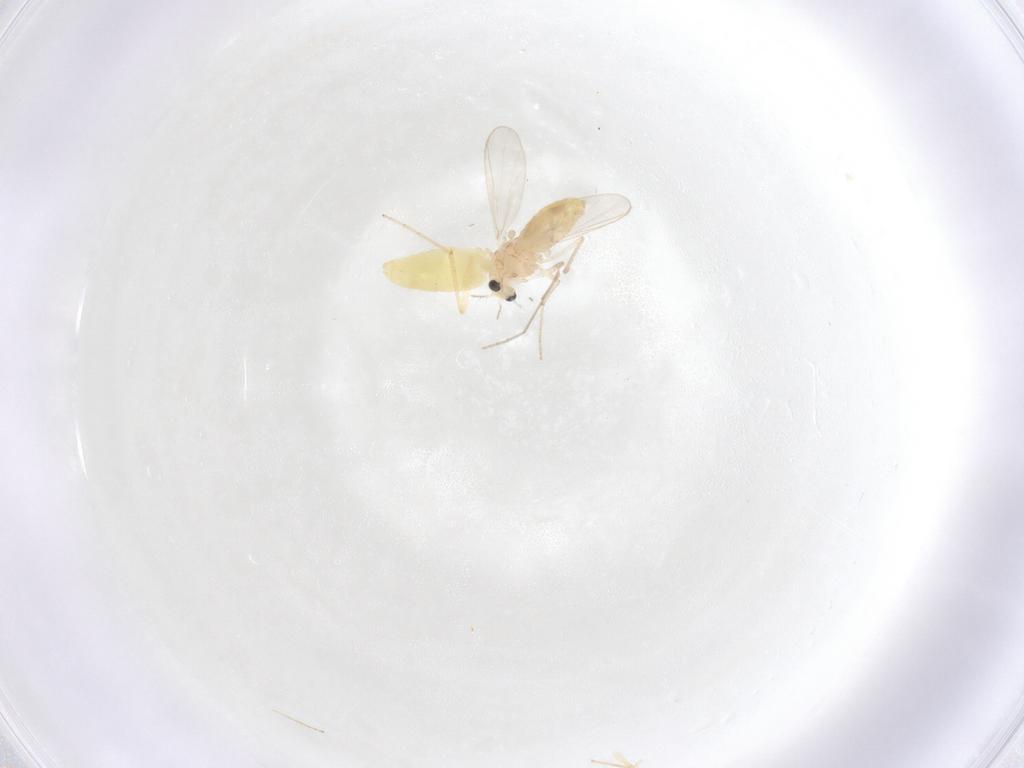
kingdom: Animalia
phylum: Arthropoda
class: Insecta
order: Diptera
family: Chironomidae
